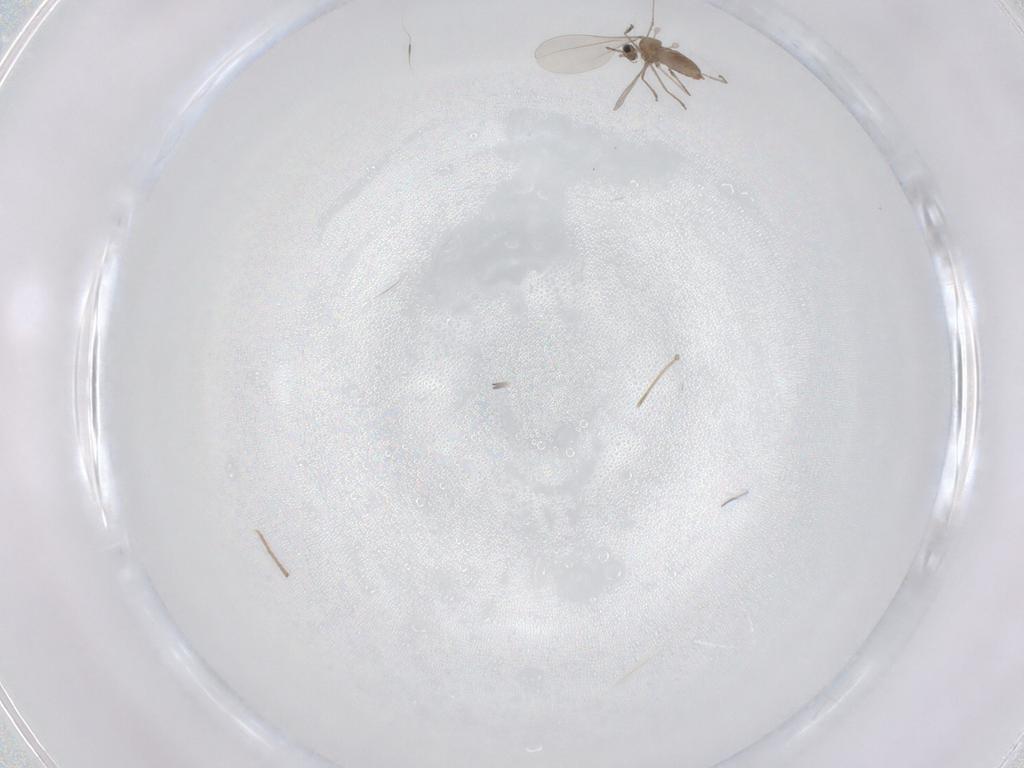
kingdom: Animalia
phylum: Arthropoda
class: Insecta
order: Diptera
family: Cecidomyiidae
